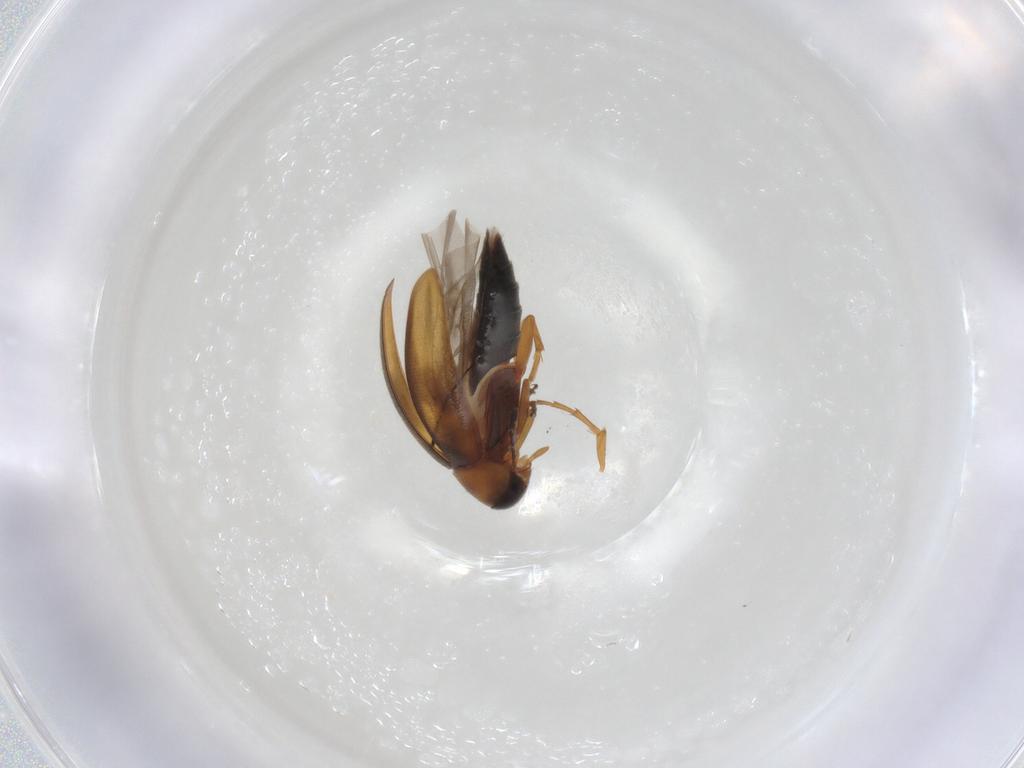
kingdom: Animalia
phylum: Arthropoda
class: Insecta
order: Coleoptera
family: Scraptiidae
